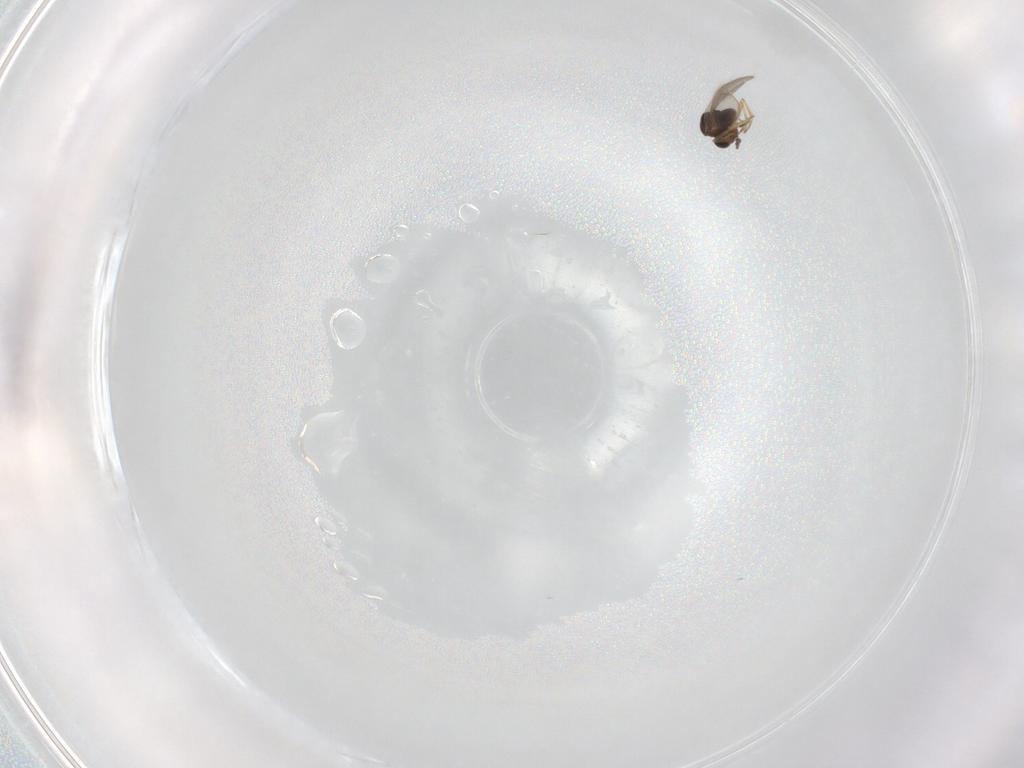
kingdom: Animalia
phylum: Arthropoda
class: Insecta
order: Hymenoptera
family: Scelionidae
